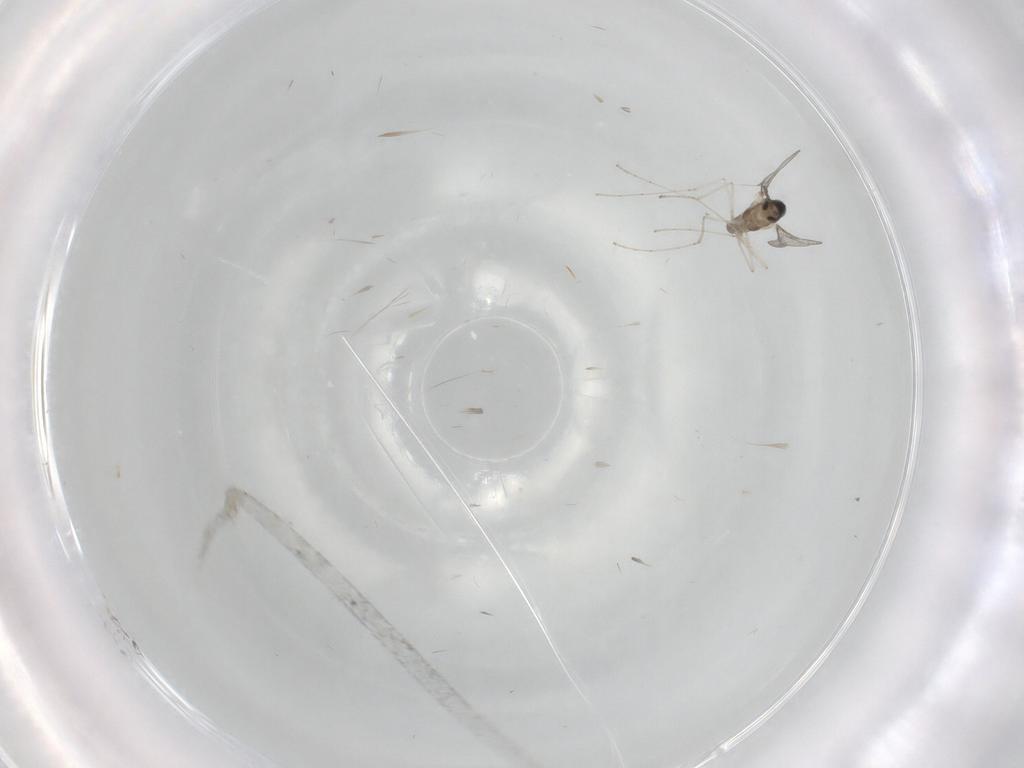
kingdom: Animalia
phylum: Arthropoda
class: Insecta
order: Diptera
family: Cecidomyiidae
